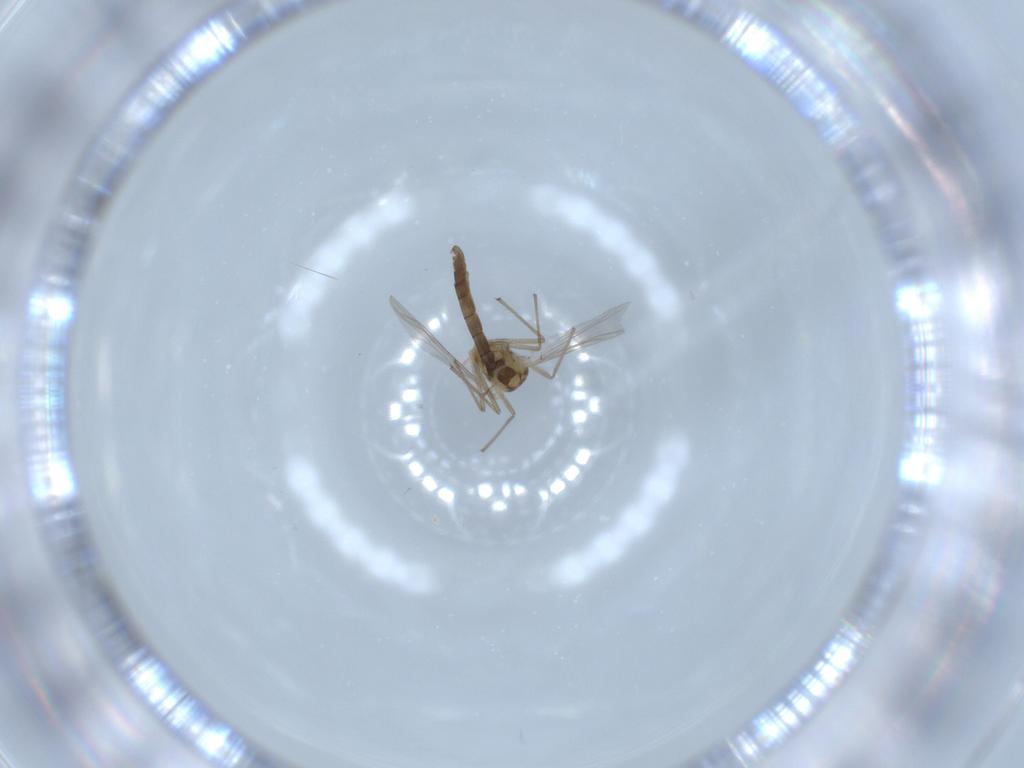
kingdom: Animalia
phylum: Arthropoda
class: Insecta
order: Diptera
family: Chironomidae
